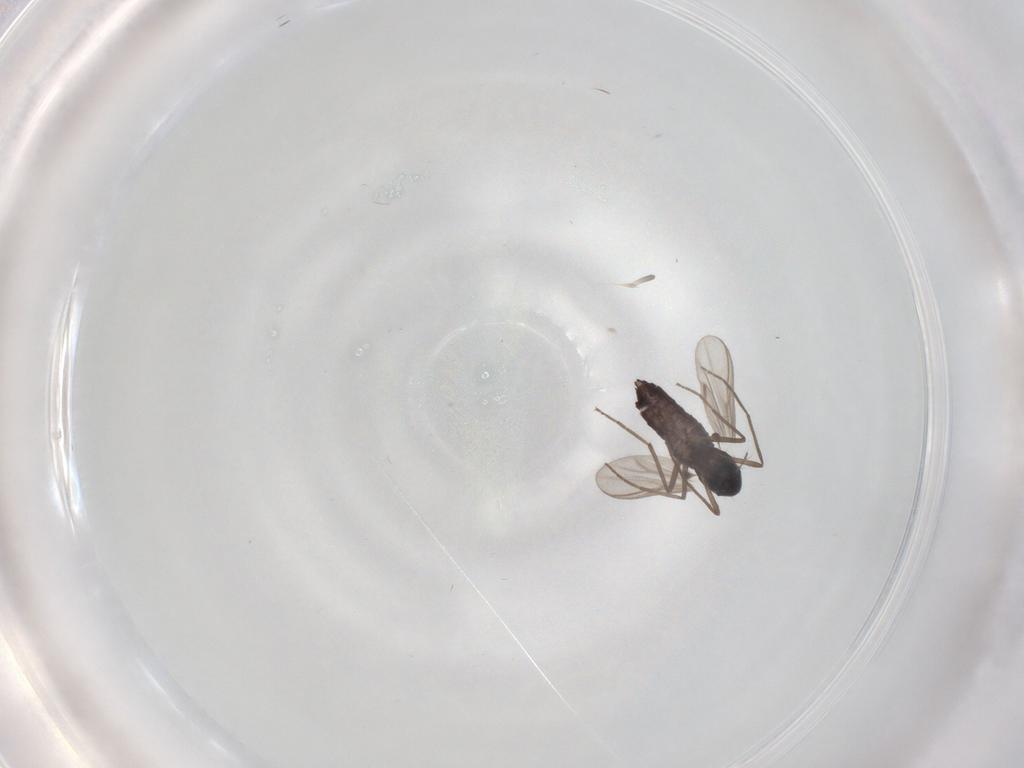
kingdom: Animalia
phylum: Arthropoda
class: Insecta
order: Diptera
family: Chironomidae
